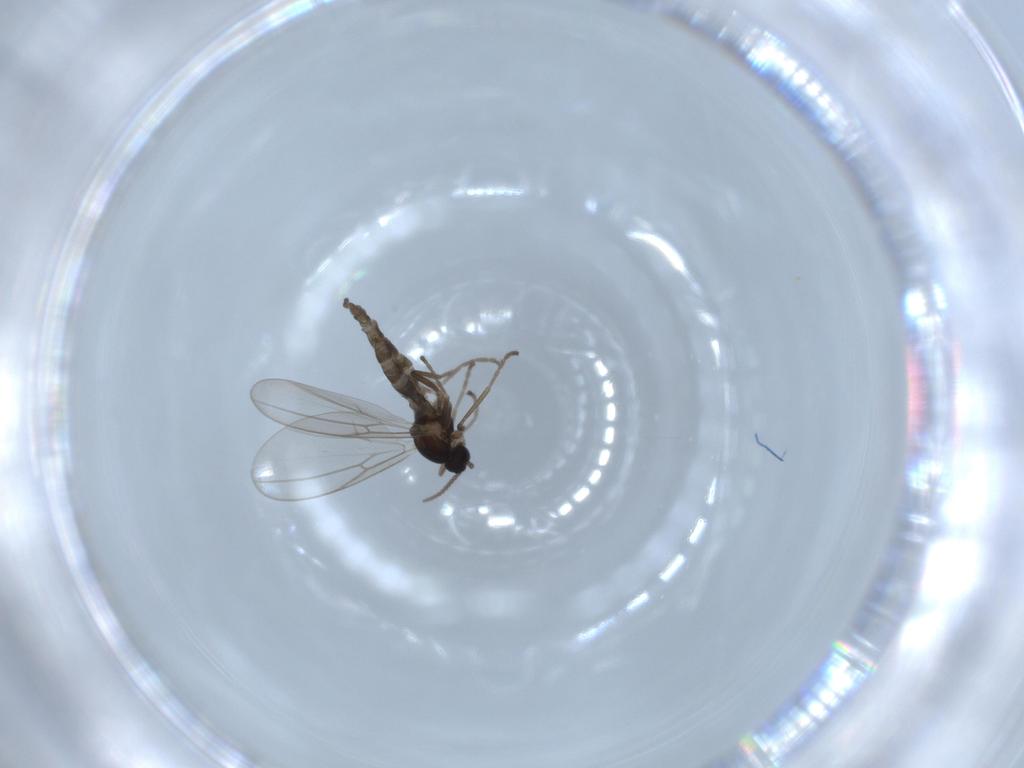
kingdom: Animalia
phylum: Arthropoda
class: Insecta
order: Diptera
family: Cecidomyiidae
